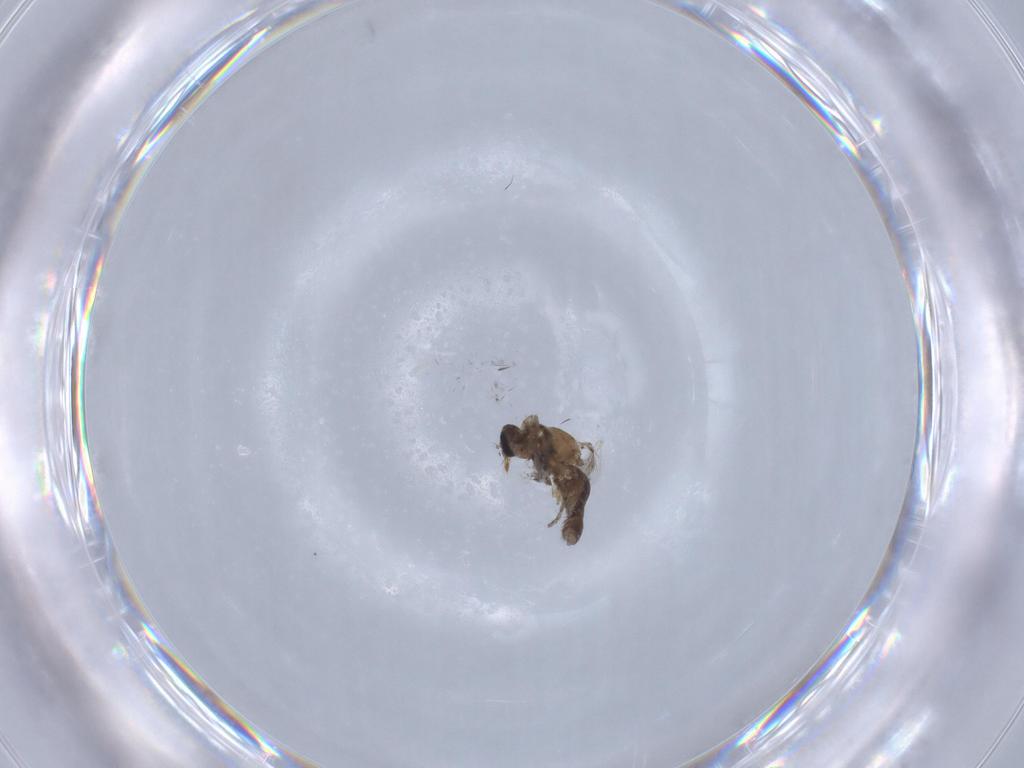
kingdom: Animalia
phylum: Arthropoda
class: Insecta
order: Diptera
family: Ceratopogonidae
